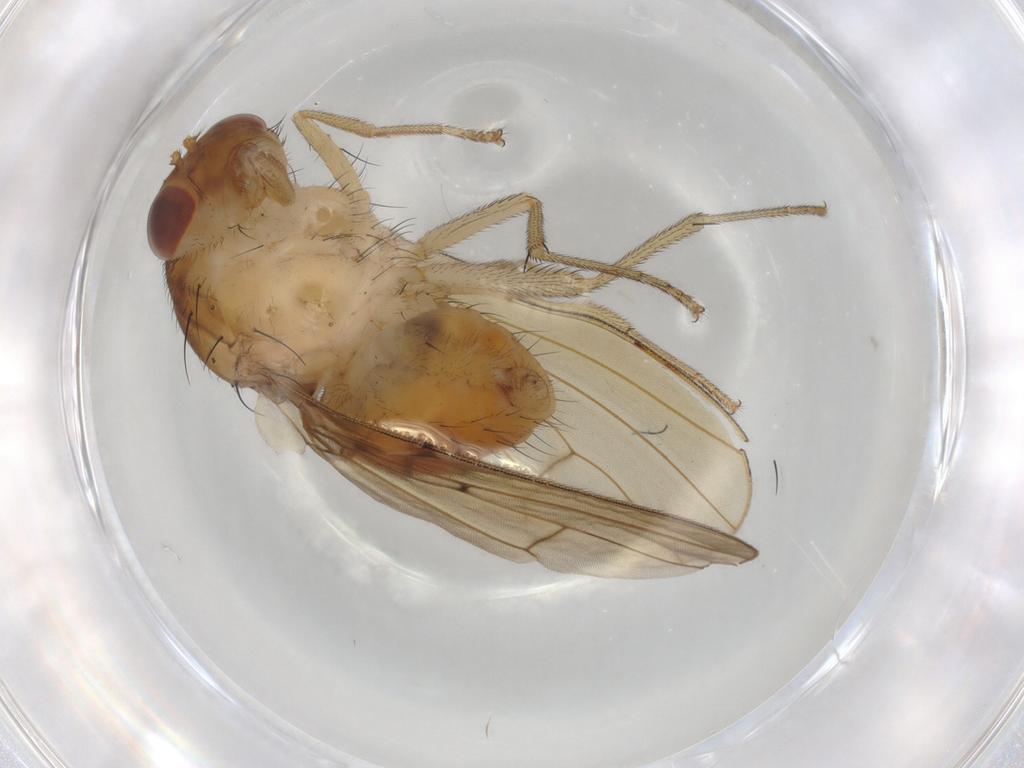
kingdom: Animalia
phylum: Arthropoda
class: Insecta
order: Diptera
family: Lauxaniidae
